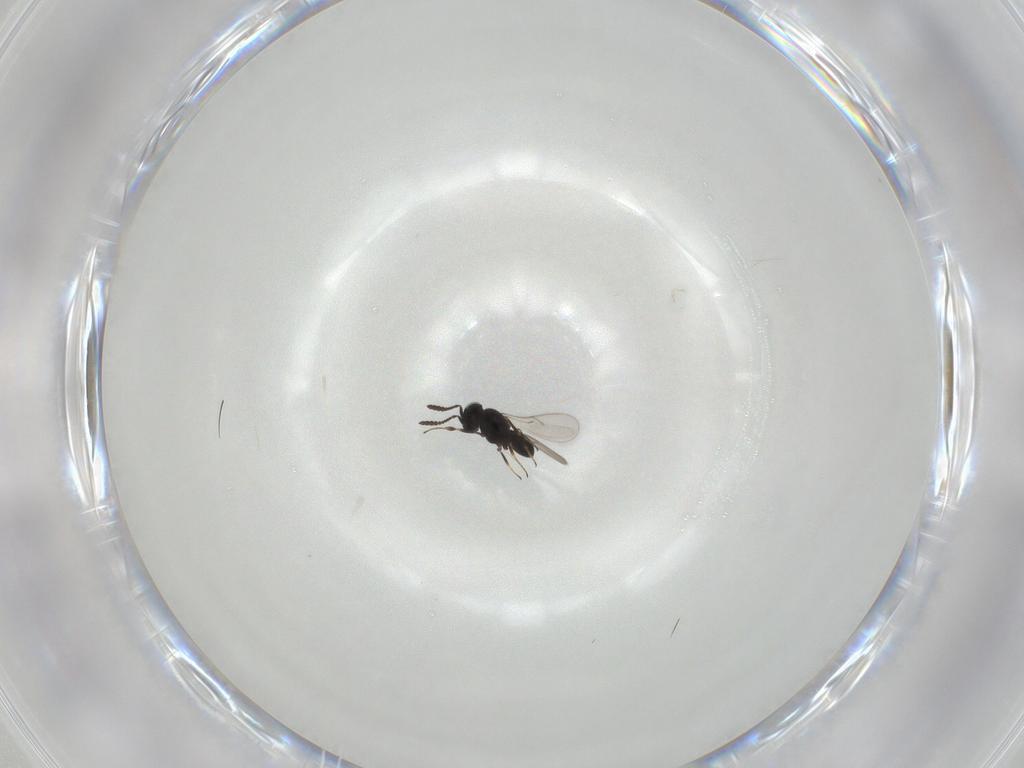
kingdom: Animalia
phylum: Arthropoda
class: Insecta
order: Hymenoptera
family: Scelionidae
